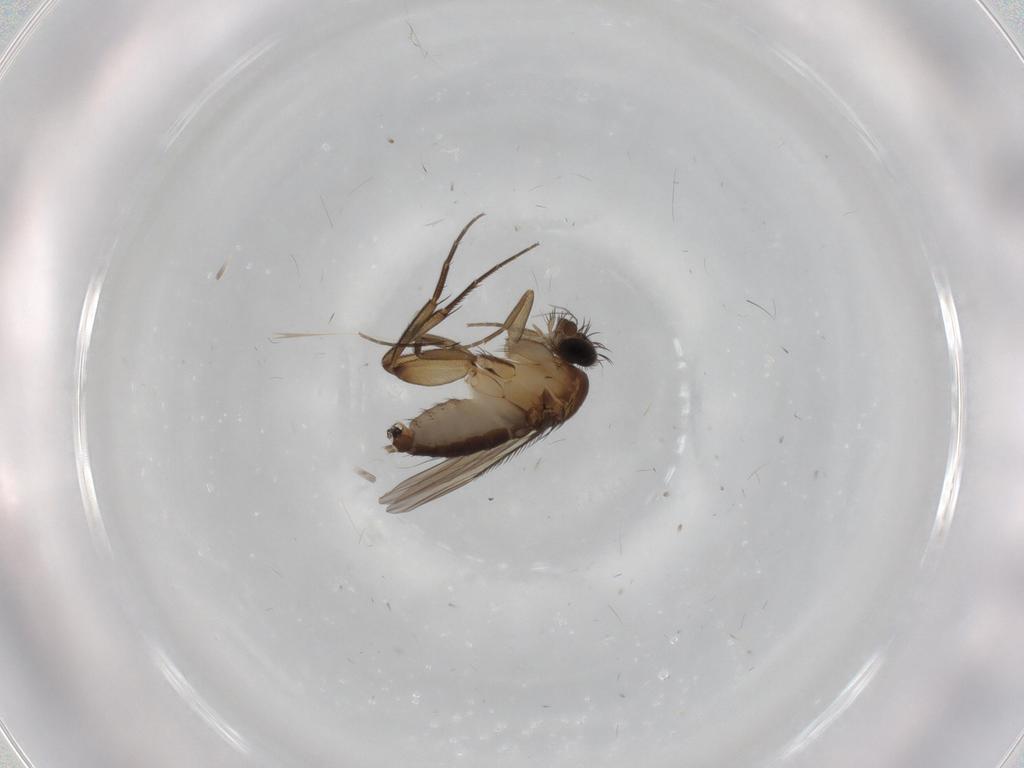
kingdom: Animalia
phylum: Arthropoda
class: Insecta
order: Diptera
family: Phoridae
